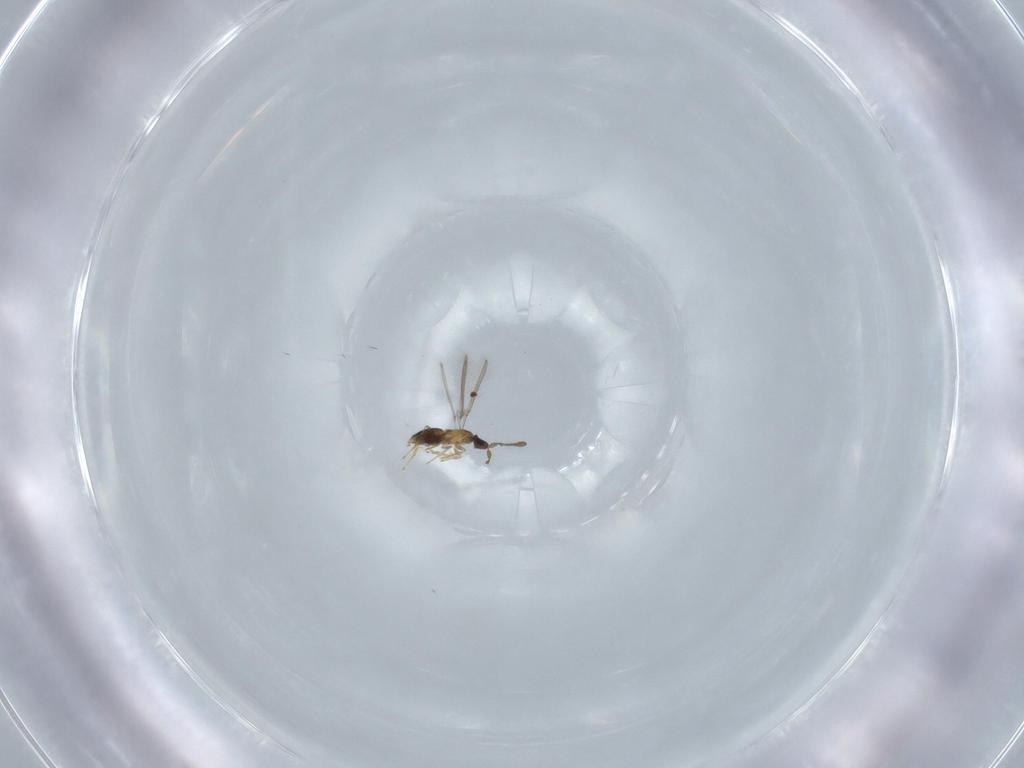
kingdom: Animalia
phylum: Arthropoda
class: Insecta
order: Hymenoptera
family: Mymaridae
